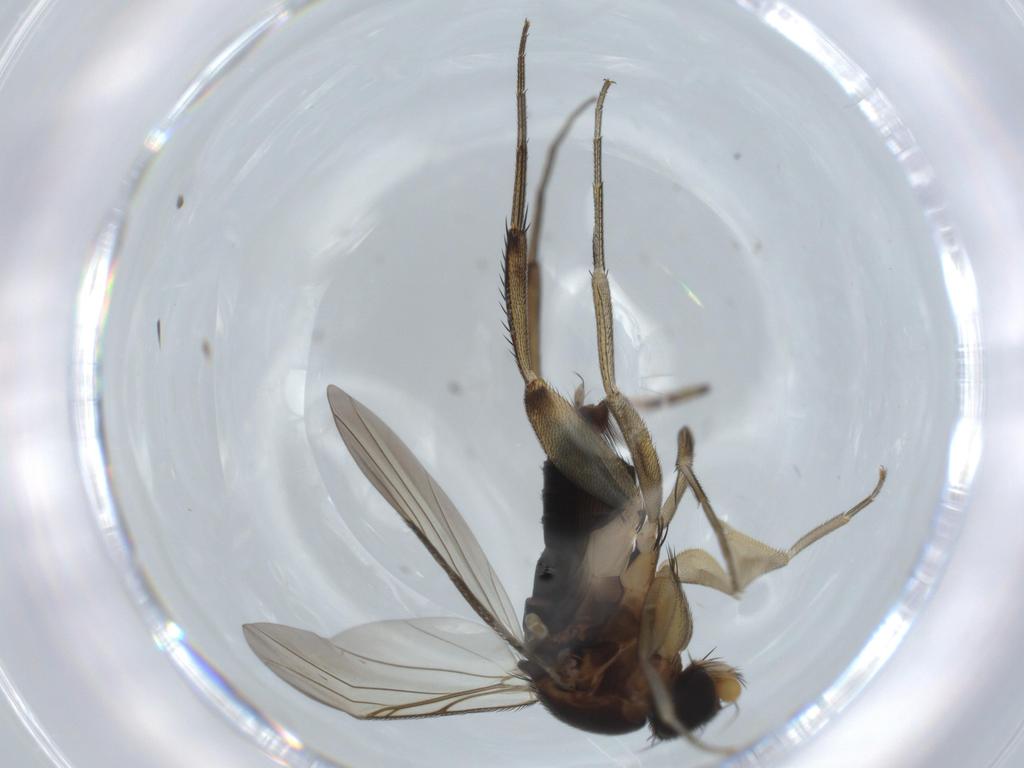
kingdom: Animalia
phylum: Arthropoda
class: Insecta
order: Diptera
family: Phoridae
